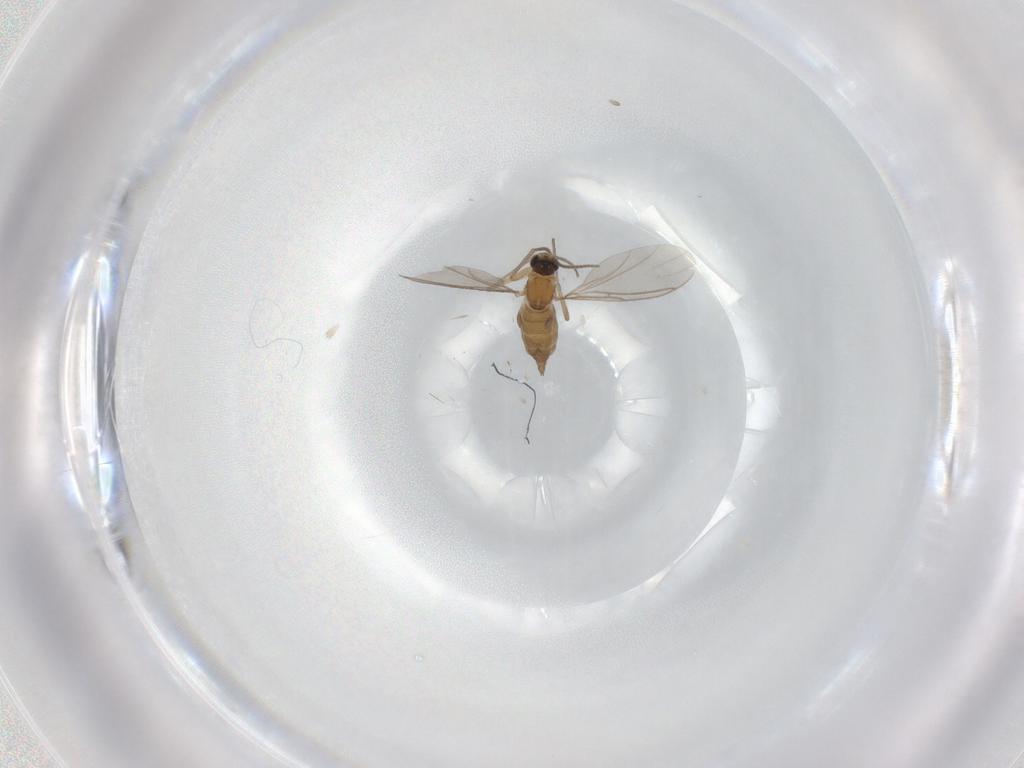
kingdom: Animalia
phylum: Arthropoda
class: Insecta
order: Diptera
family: Sciaridae
